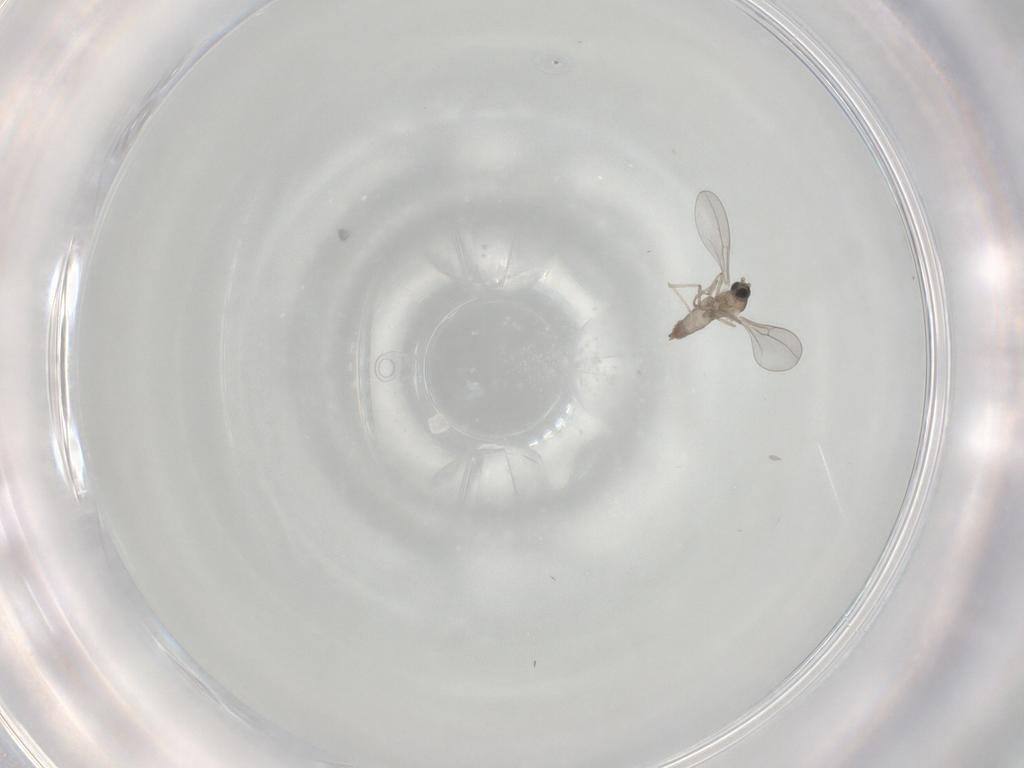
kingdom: Animalia
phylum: Arthropoda
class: Insecta
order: Diptera
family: Cecidomyiidae
